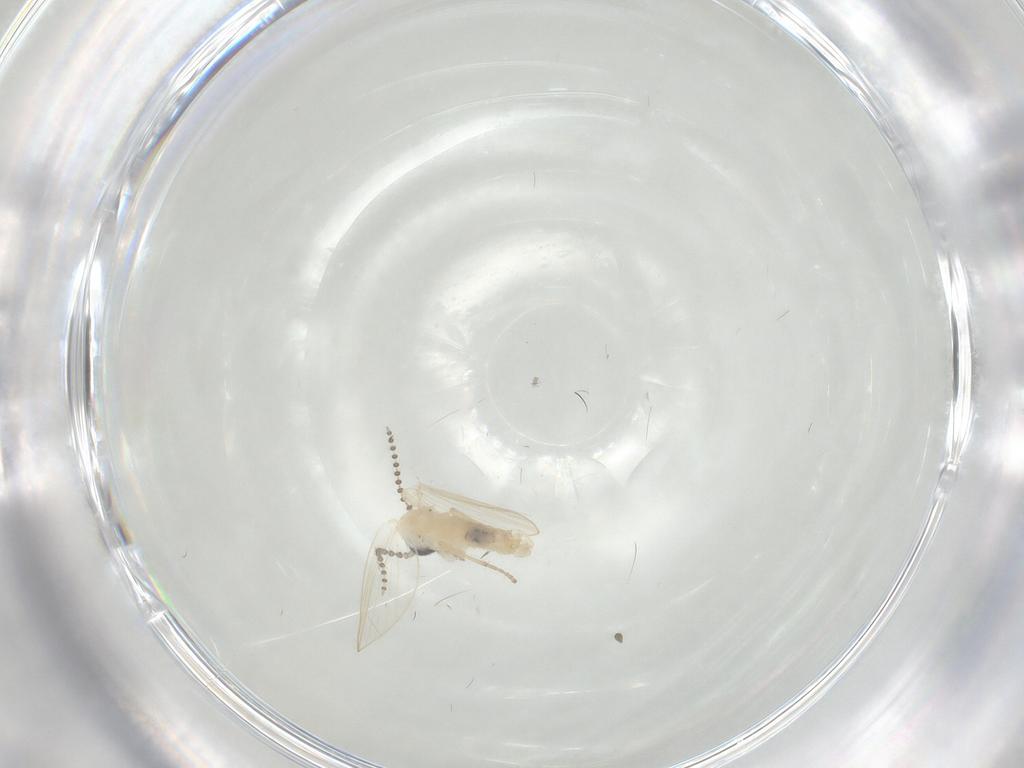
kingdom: Animalia
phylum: Arthropoda
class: Insecta
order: Diptera
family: Psychodidae
